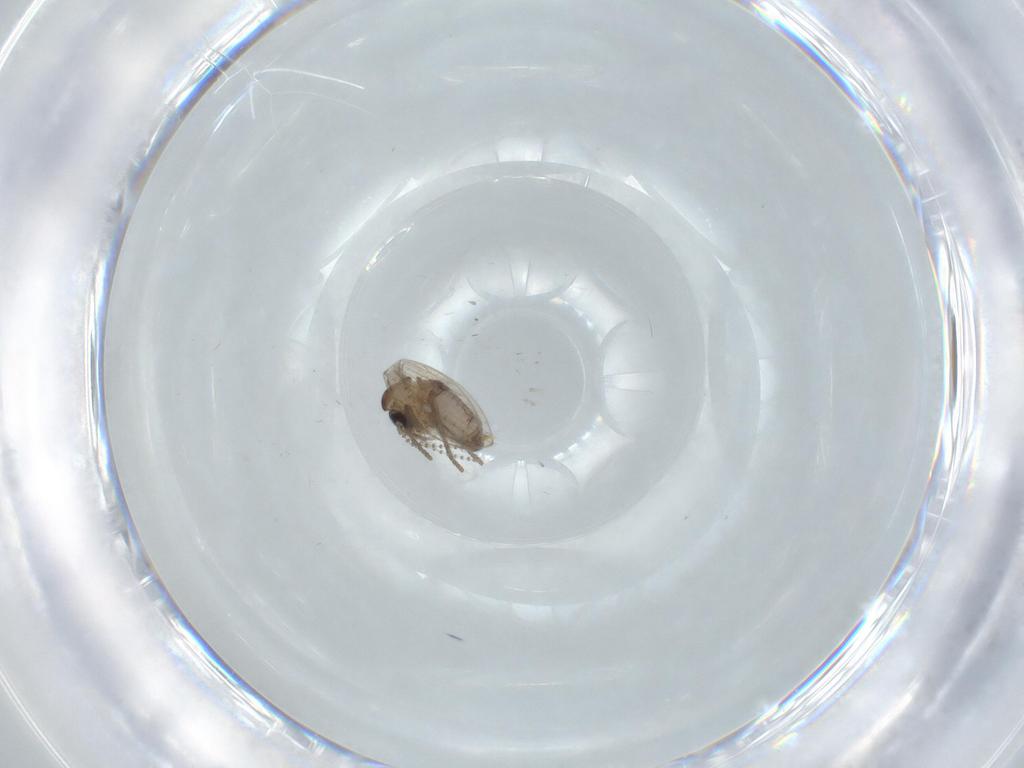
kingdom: Animalia
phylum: Arthropoda
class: Insecta
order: Diptera
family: Psychodidae
